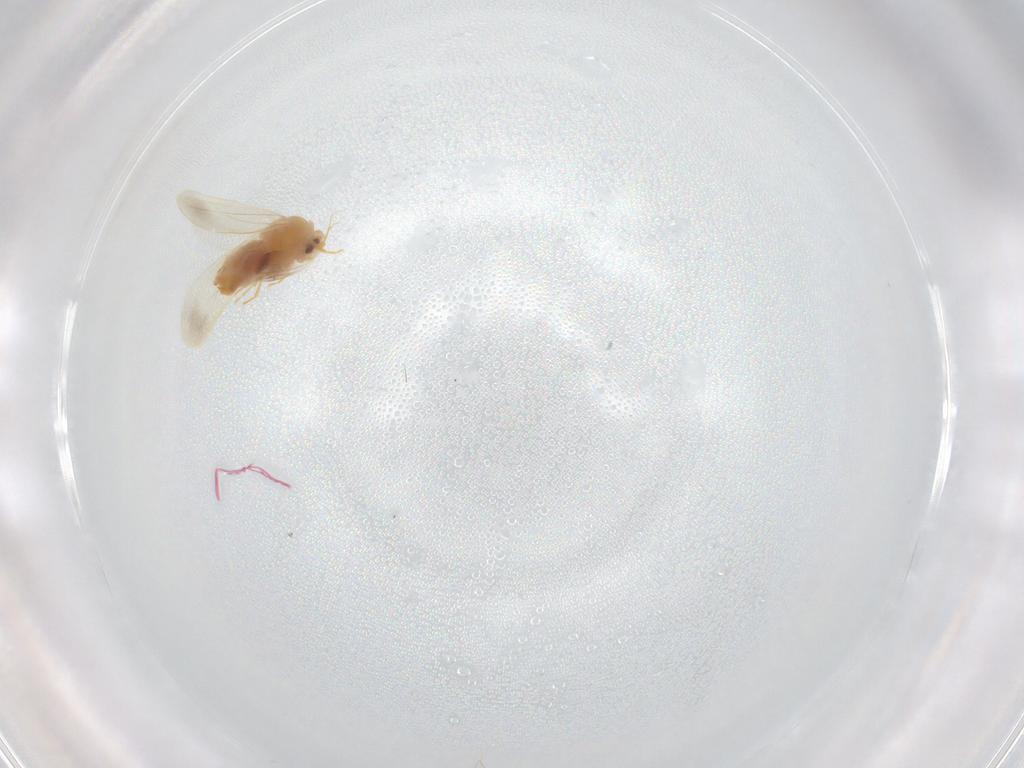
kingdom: Animalia
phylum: Arthropoda
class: Insecta
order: Hemiptera
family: Aleyrodidae
